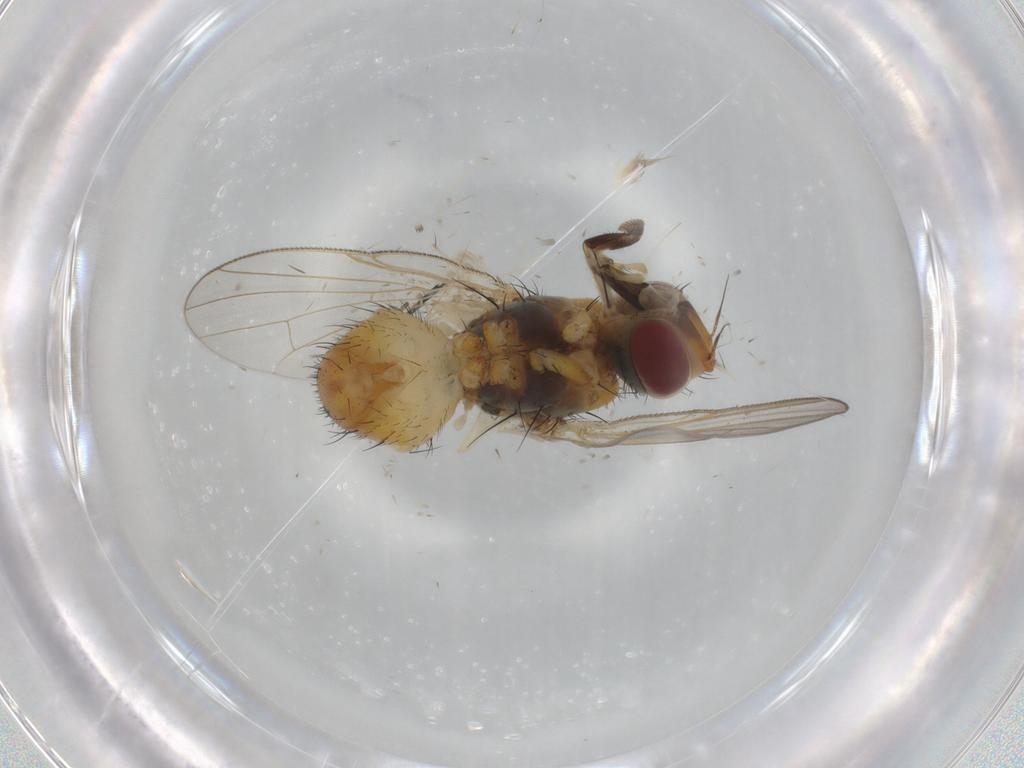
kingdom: Animalia
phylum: Arthropoda
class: Insecta
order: Diptera
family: Muscidae
